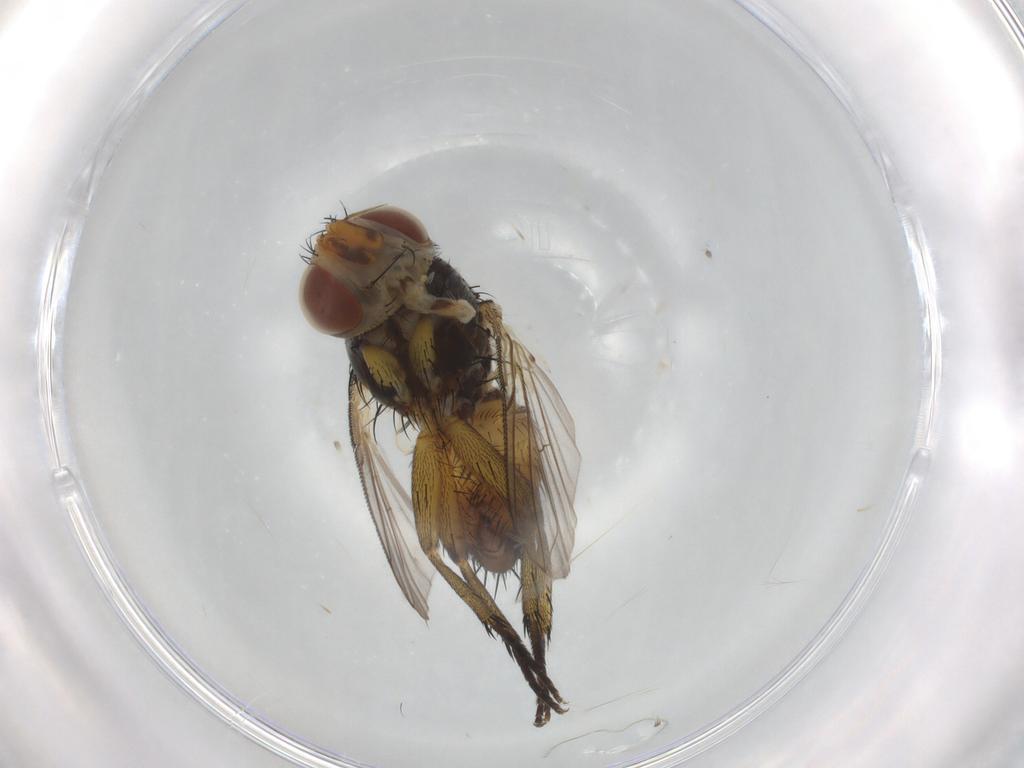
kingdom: Animalia
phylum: Arthropoda
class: Insecta
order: Diptera
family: Tachinidae
